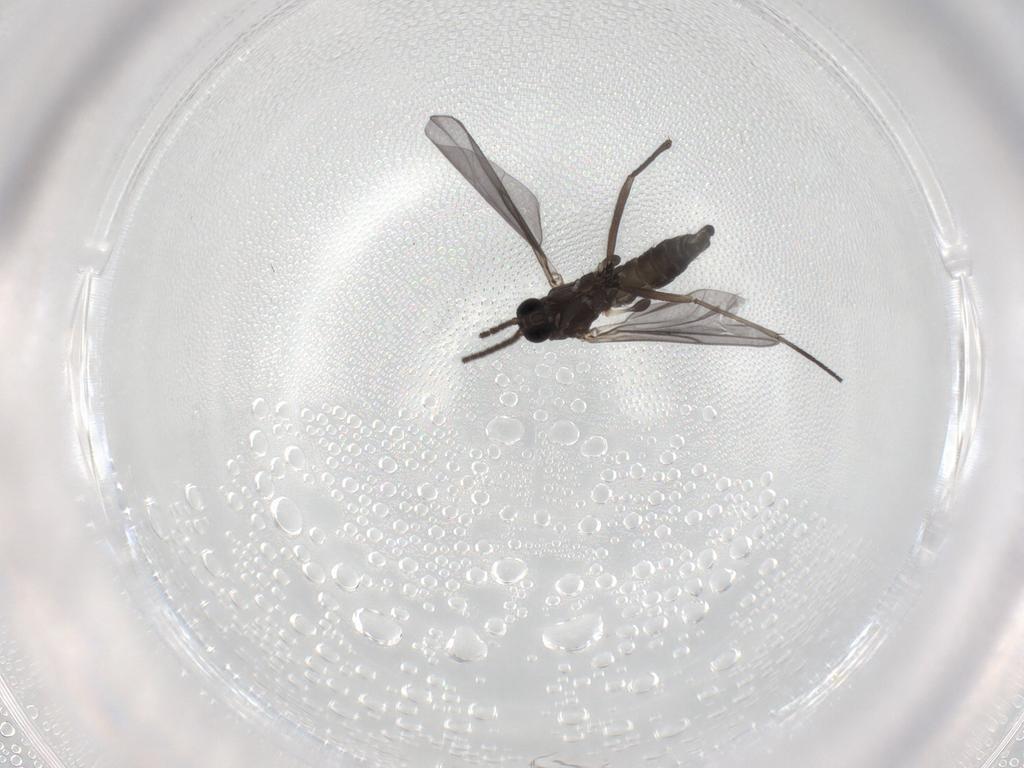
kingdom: Animalia
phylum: Arthropoda
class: Insecta
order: Diptera
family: Sciaridae
